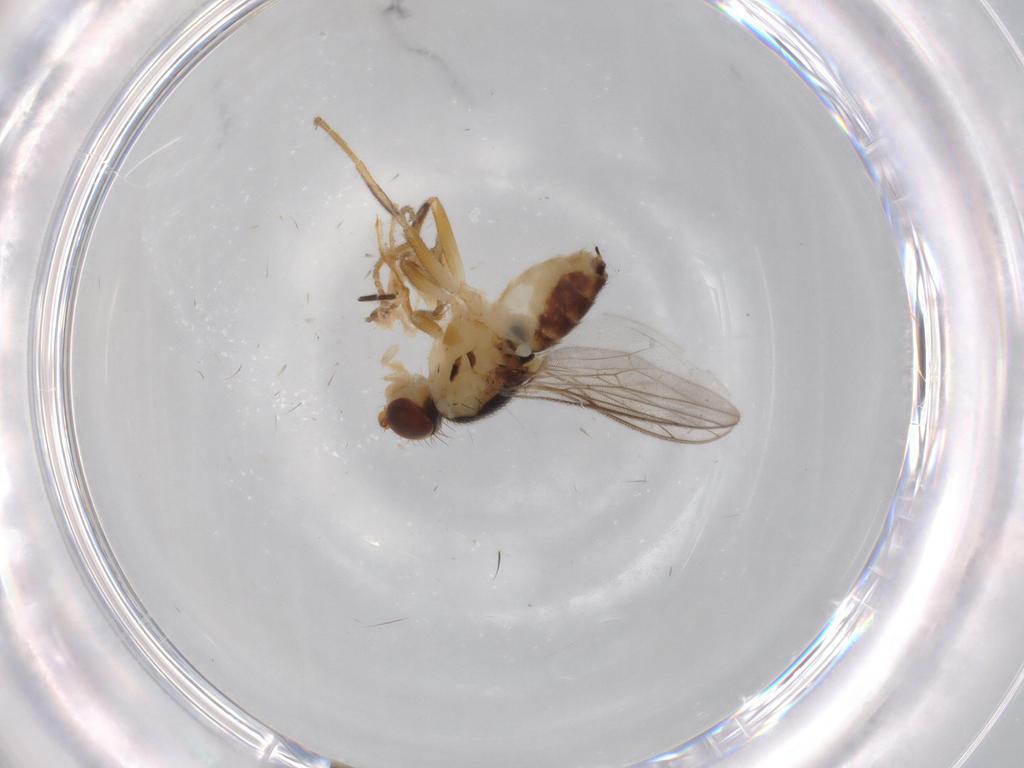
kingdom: Animalia
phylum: Arthropoda
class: Insecta
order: Diptera
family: Chloropidae
